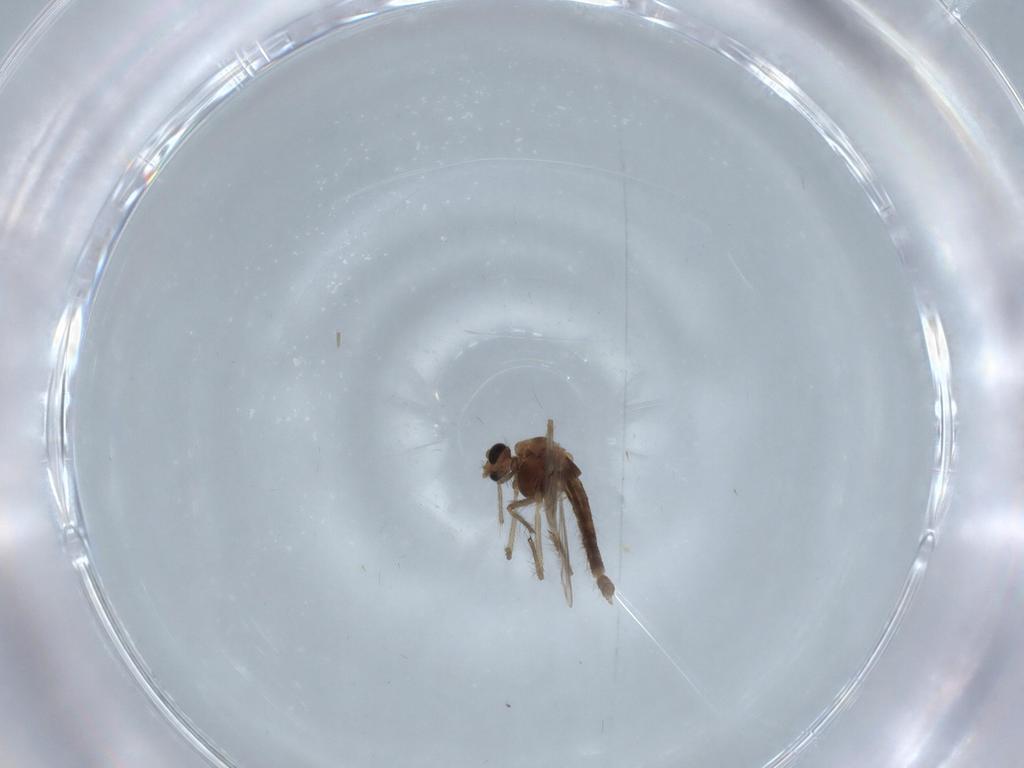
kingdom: Animalia
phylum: Arthropoda
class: Insecta
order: Diptera
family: Chironomidae
